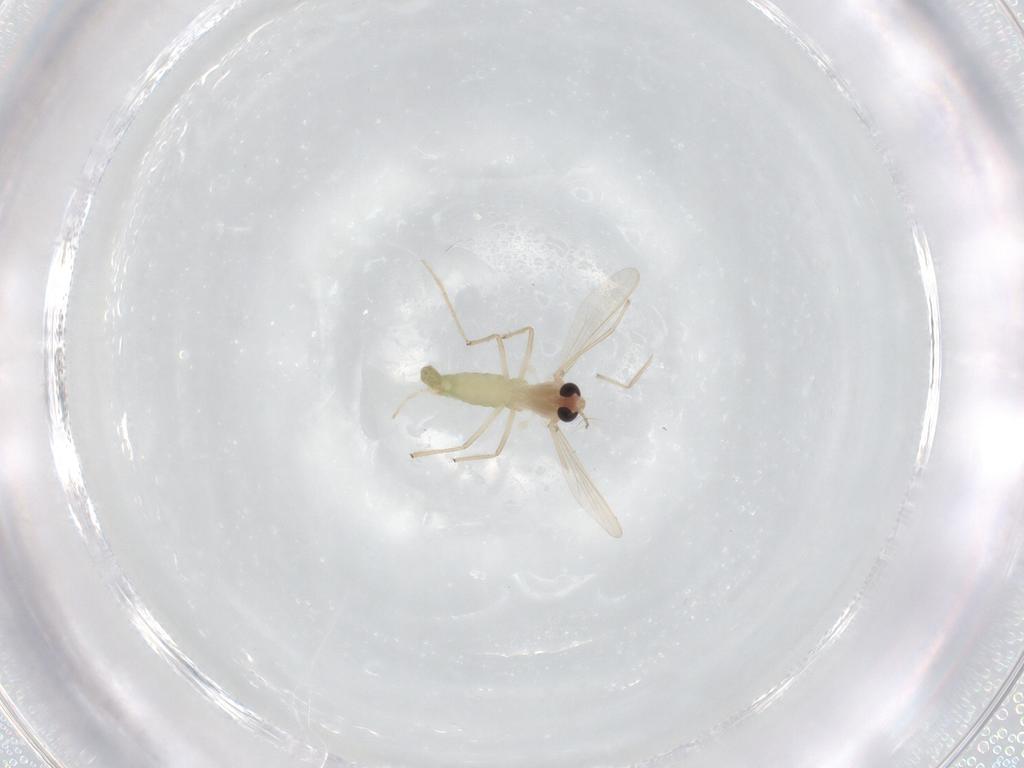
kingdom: Animalia
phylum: Arthropoda
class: Insecta
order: Diptera
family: Chironomidae
